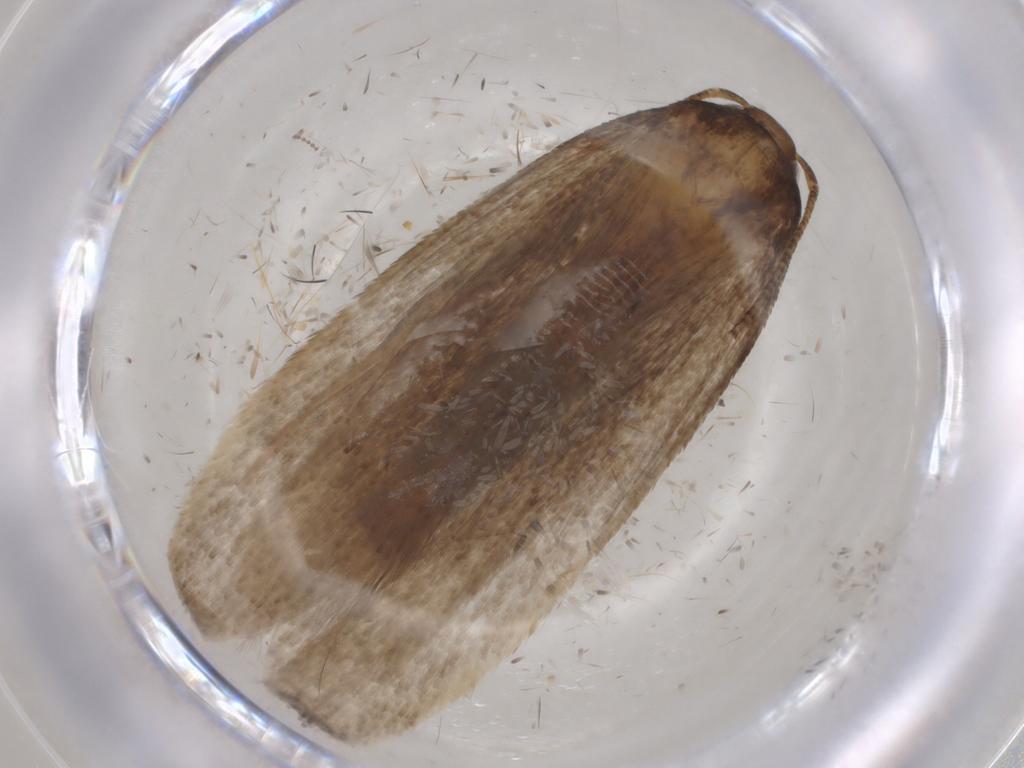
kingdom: Animalia
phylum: Arthropoda
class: Insecta
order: Lepidoptera
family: Gelechiidae
